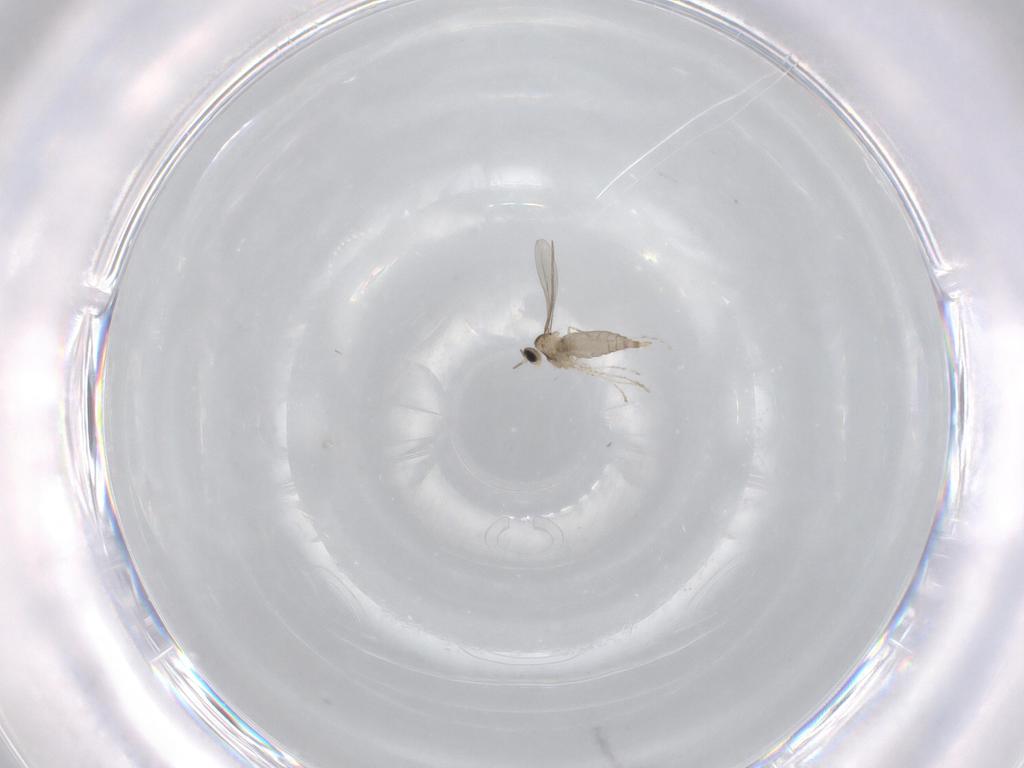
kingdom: Animalia
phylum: Arthropoda
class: Insecta
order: Diptera
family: Cecidomyiidae
